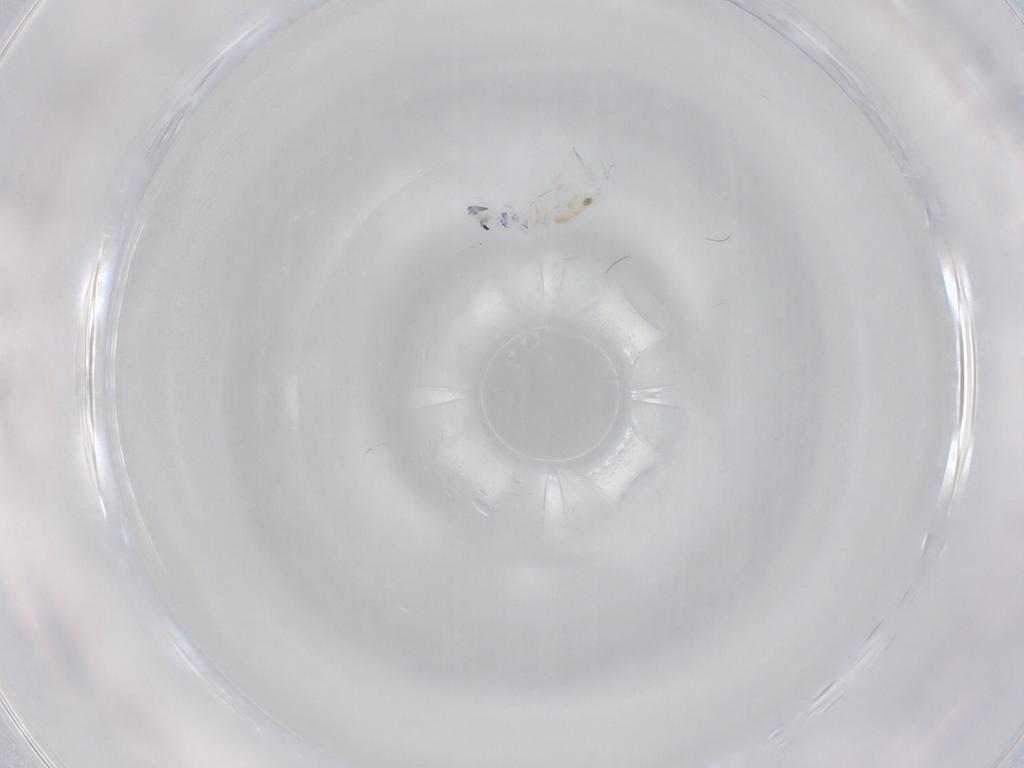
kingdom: Animalia
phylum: Arthropoda
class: Collembola
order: Entomobryomorpha
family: Entomobryidae
